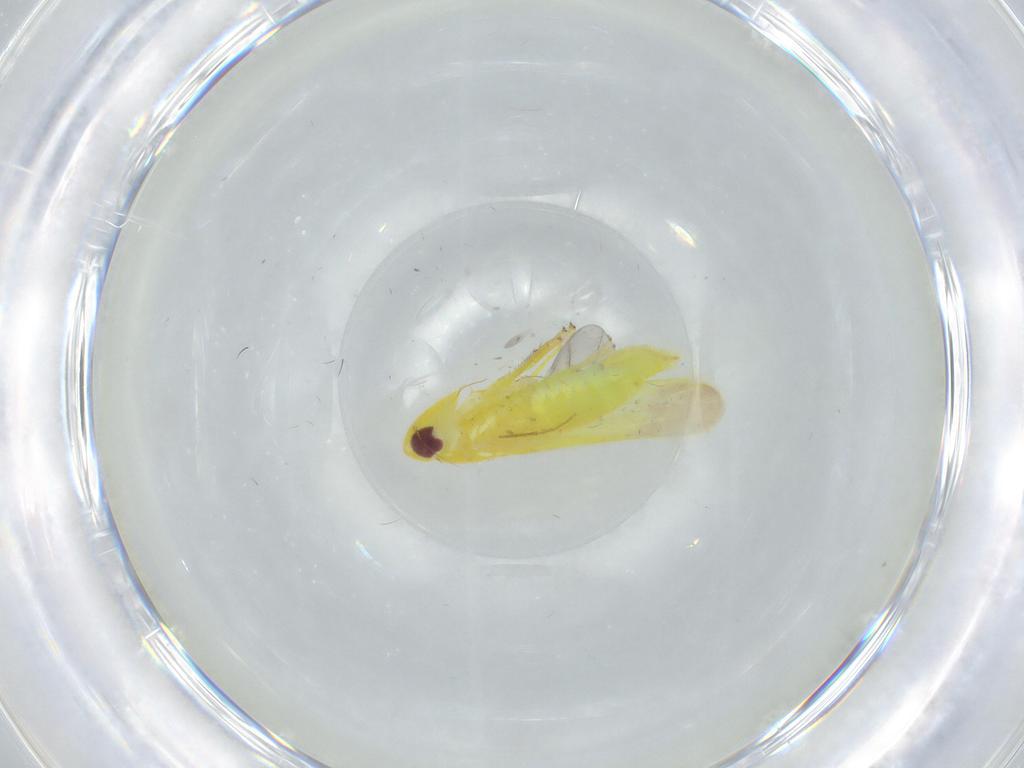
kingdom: Animalia
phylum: Arthropoda
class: Insecta
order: Hemiptera
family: Cicadellidae
